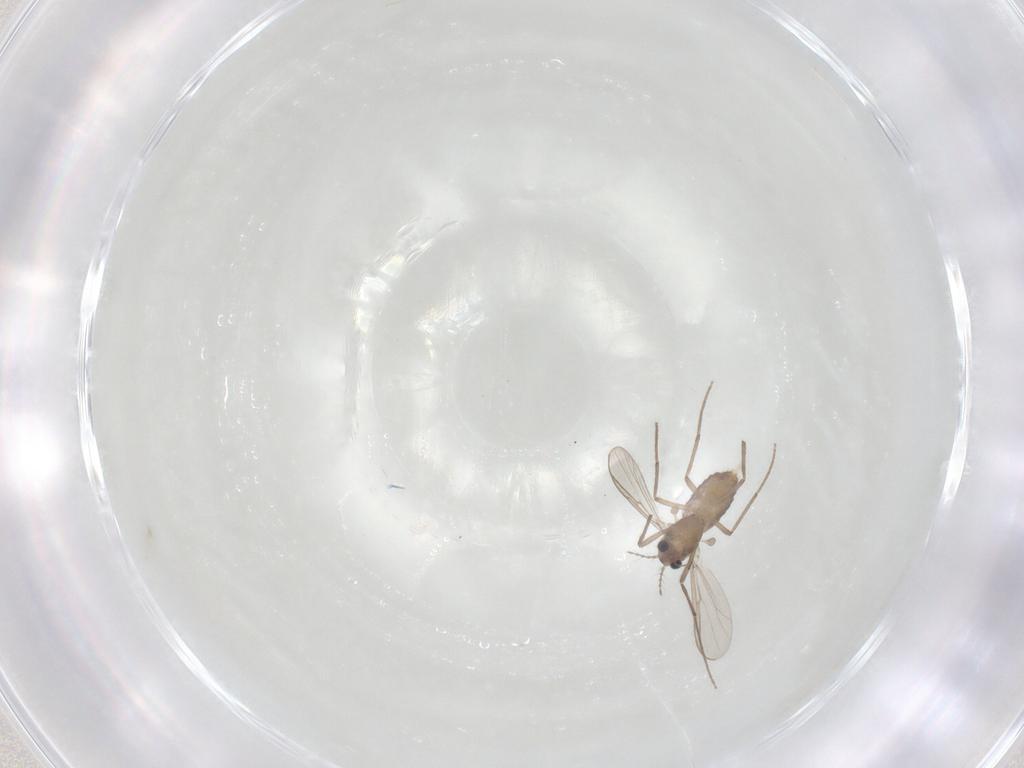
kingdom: Animalia
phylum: Arthropoda
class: Insecta
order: Diptera
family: Chironomidae
